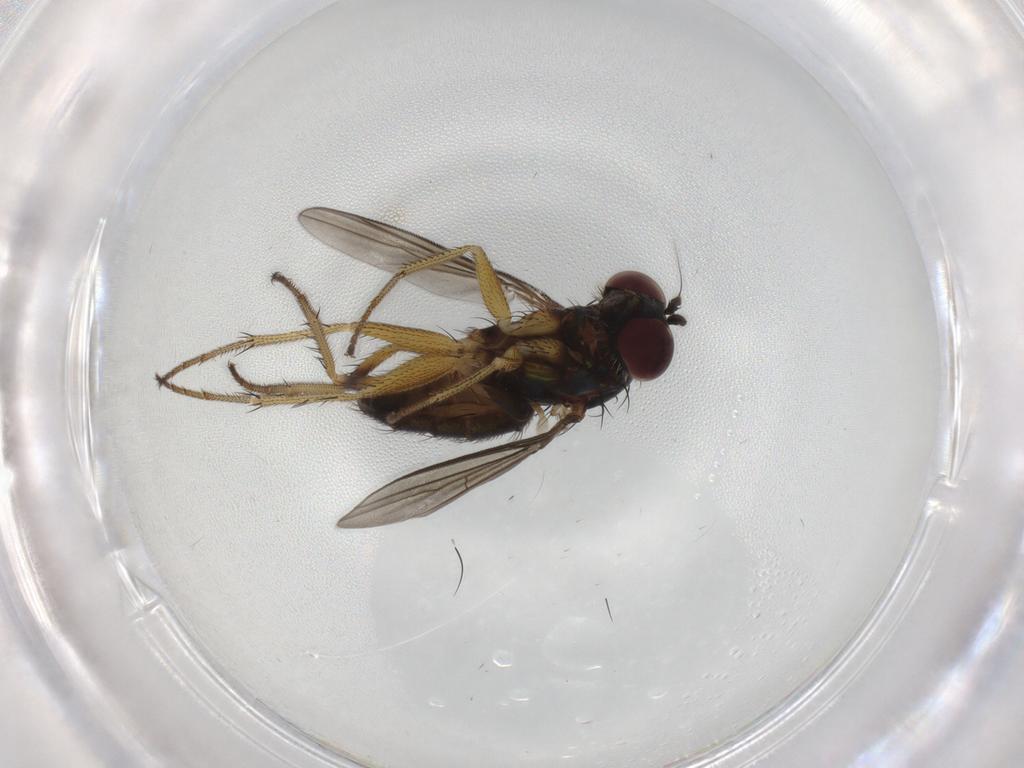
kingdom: Animalia
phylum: Arthropoda
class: Insecta
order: Diptera
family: Dolichopodidae
